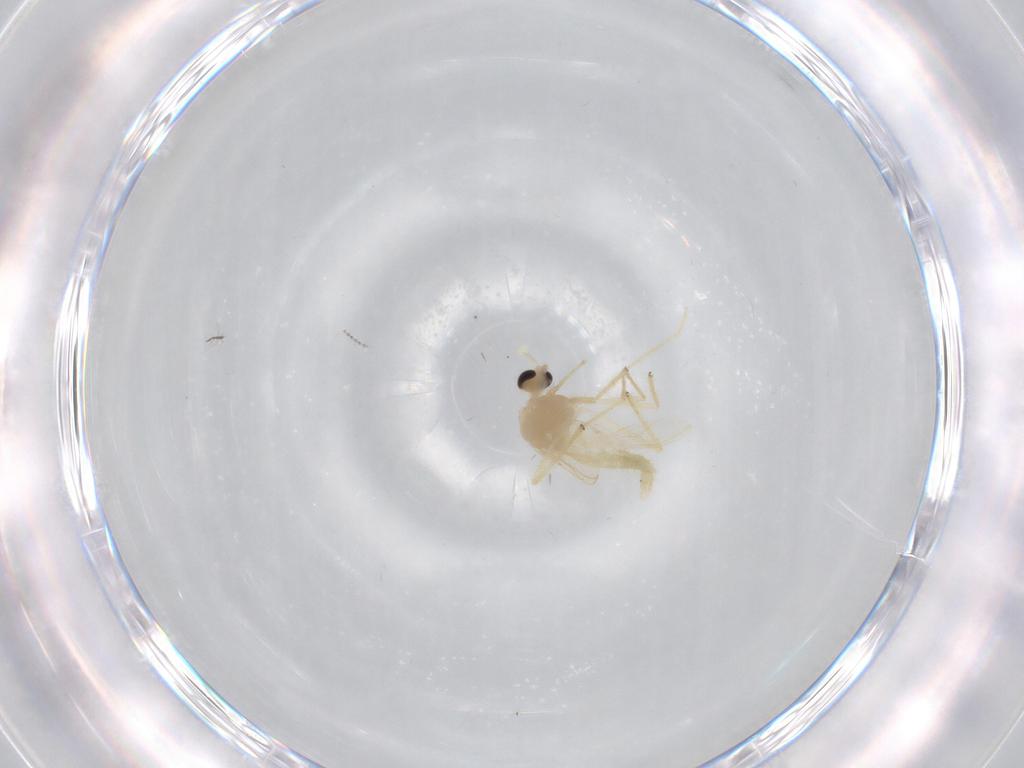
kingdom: Animalia
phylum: Arthropoda
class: Insecta
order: Diptera
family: Chironomidae
